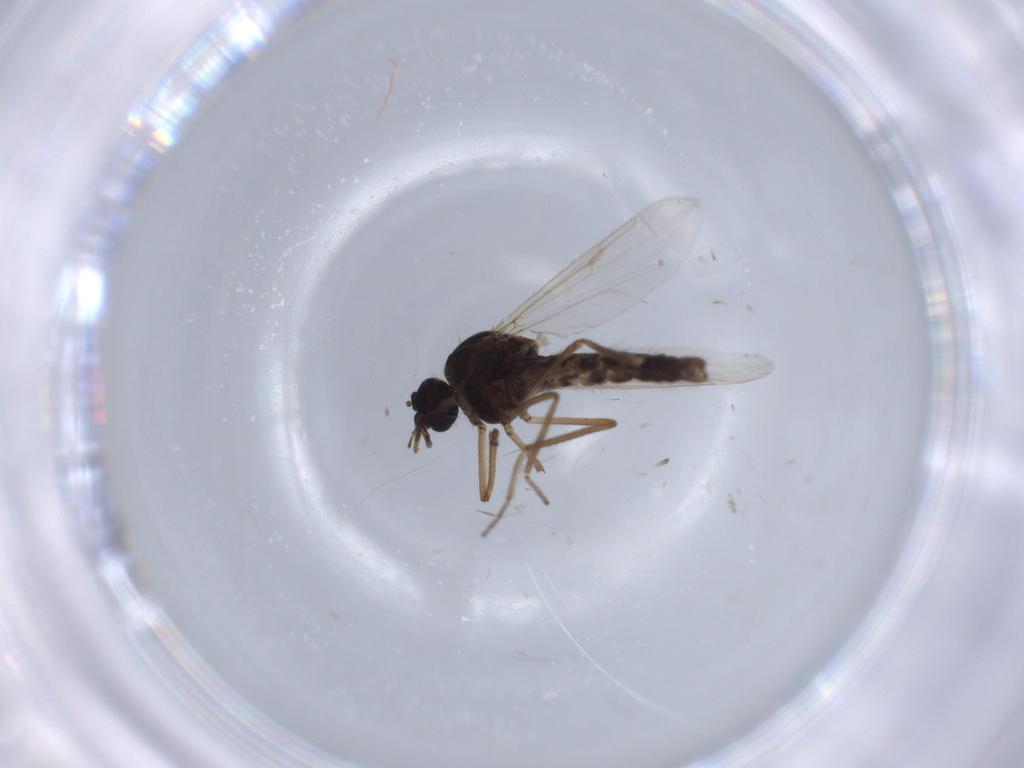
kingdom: Animalia
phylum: Arthropoda
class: Insecta
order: Diptera
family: Ceratopogonidae
